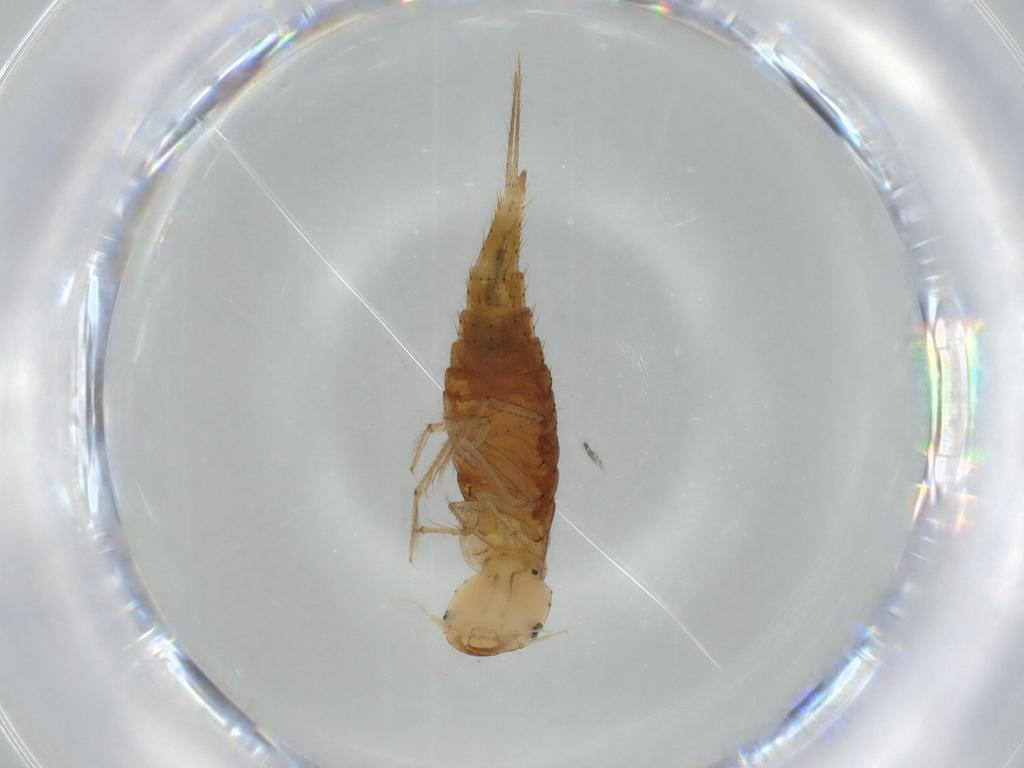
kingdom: Animalia
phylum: Arthropoda
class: Insecta
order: Coleoptera
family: Dytiscidae
